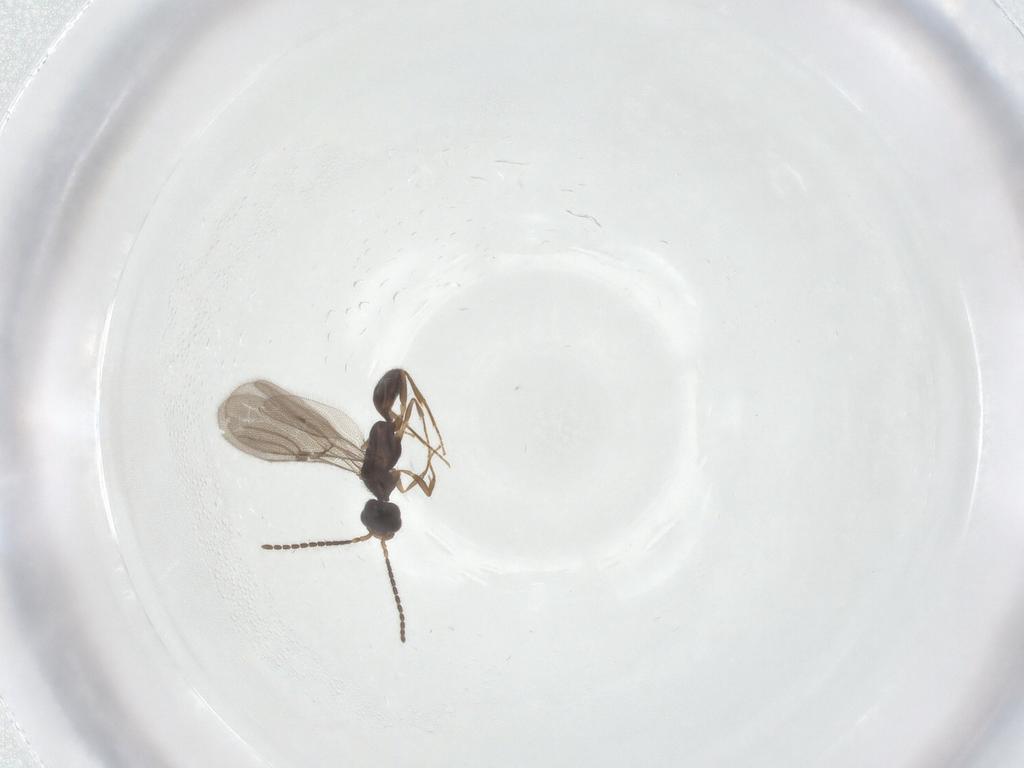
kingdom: Animalia
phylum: Arthropoda
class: Insecta
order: Hymenoptera
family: Bethylidae
